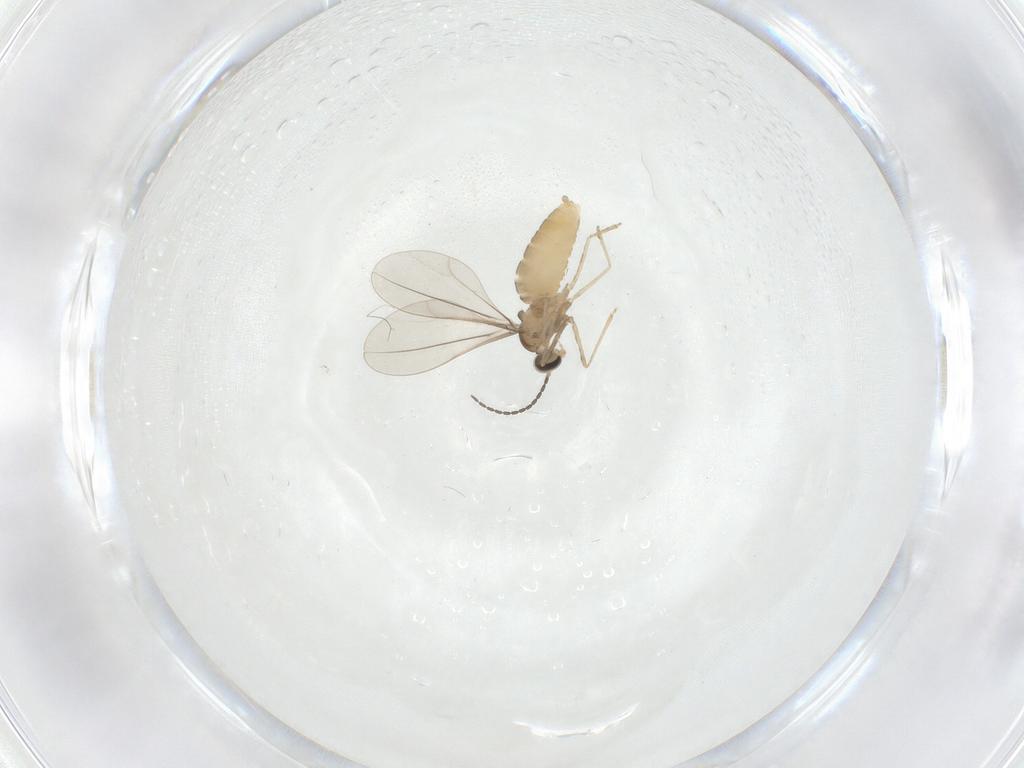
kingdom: Animalia
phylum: Arthropoda
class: Insecta
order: Diptera
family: Cecidomyiidae
